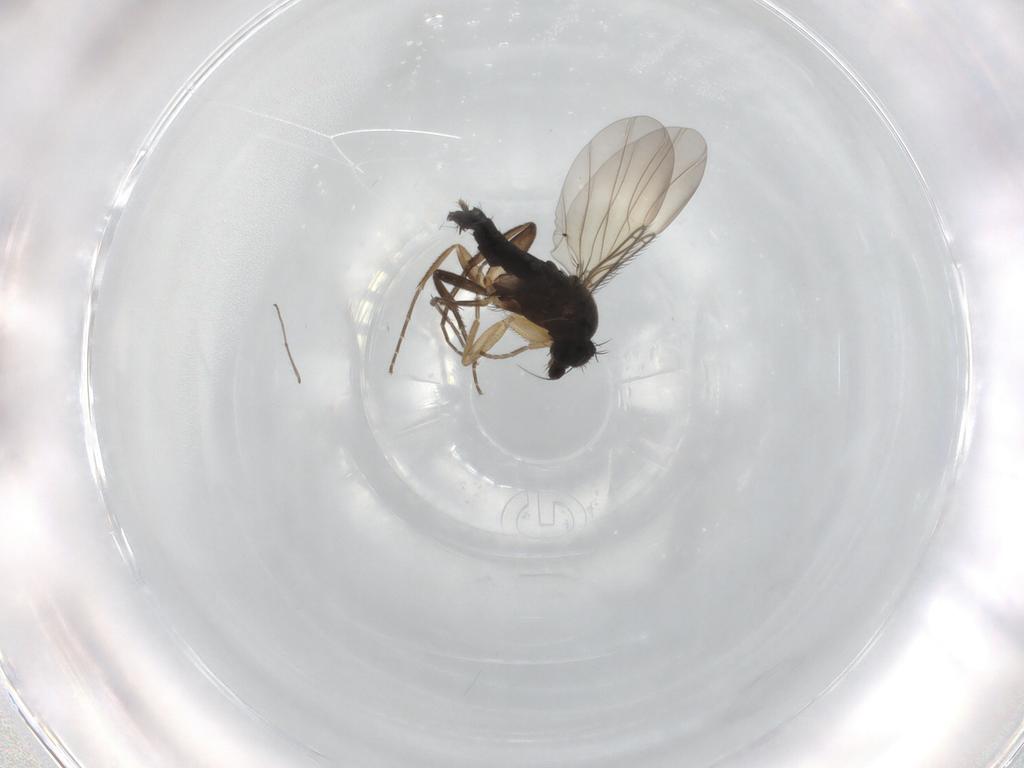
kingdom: Animalia
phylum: Arthropoda
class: Insecta
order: Diptera
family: Phoridae
